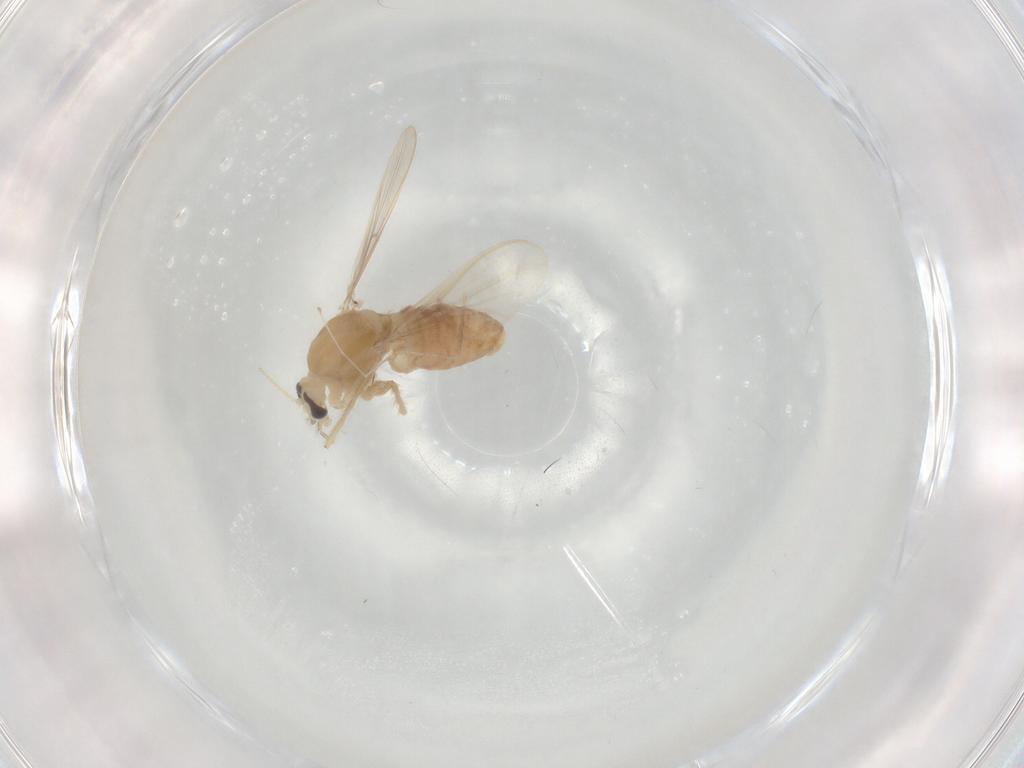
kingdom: Animalia
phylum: Arthropoda
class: Insecta
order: Diptera
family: Chironomidae
